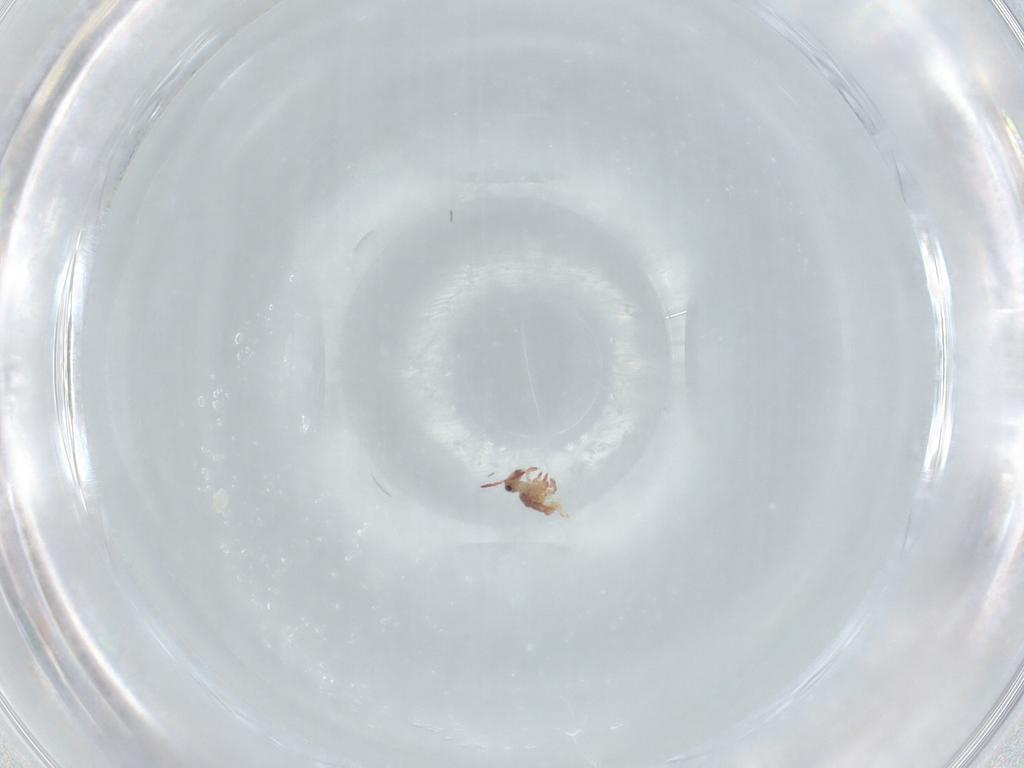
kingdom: Animalia
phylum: Arthropoda
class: Collembola
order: Symphypleona
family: Sminthurididae
